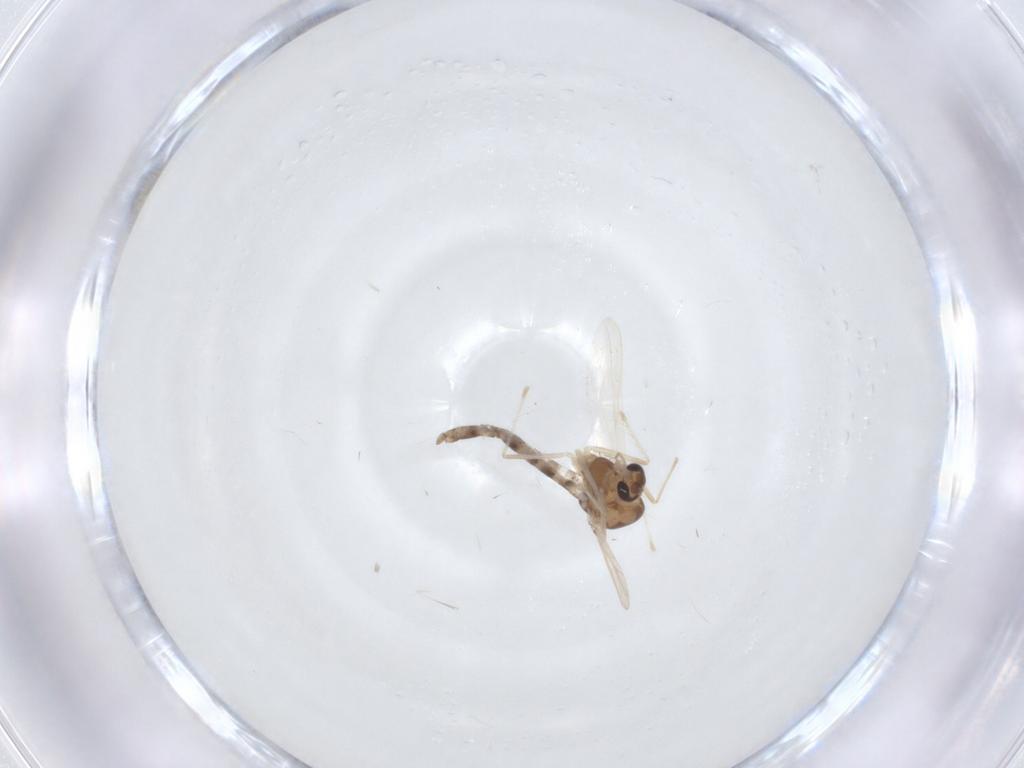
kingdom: Animalia
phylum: Arthropoda
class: Insecta
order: Diptera
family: Chironomidae
